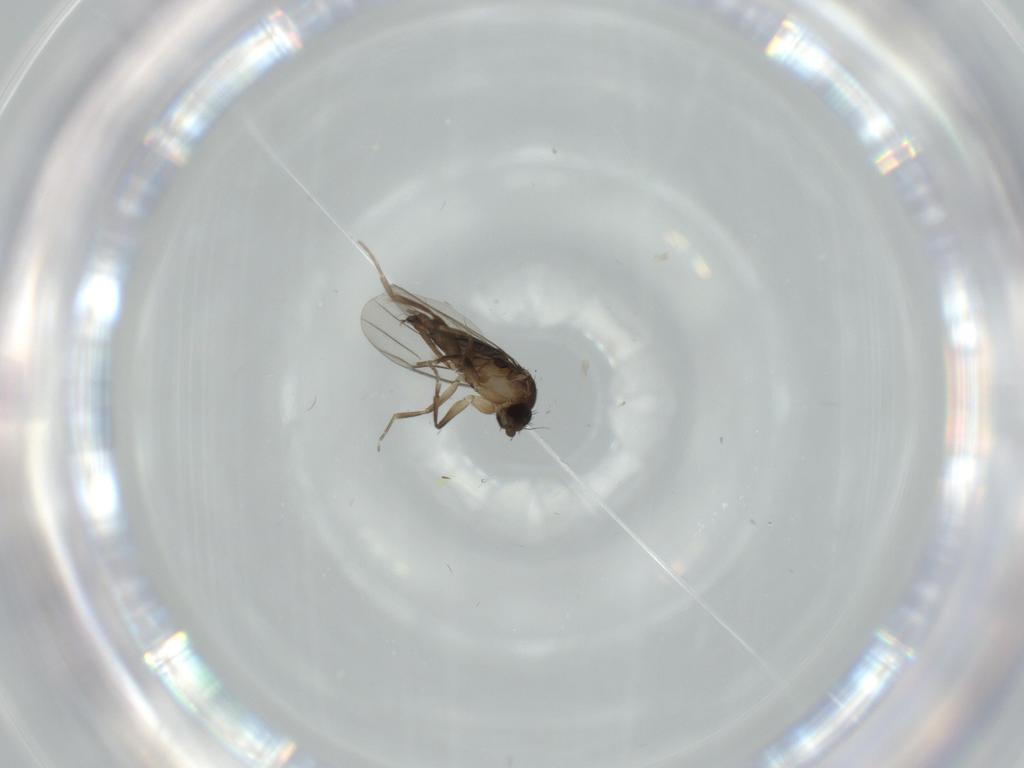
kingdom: Animalia
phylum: Arthropoda
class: Insecta
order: Diptera
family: Phoridae
